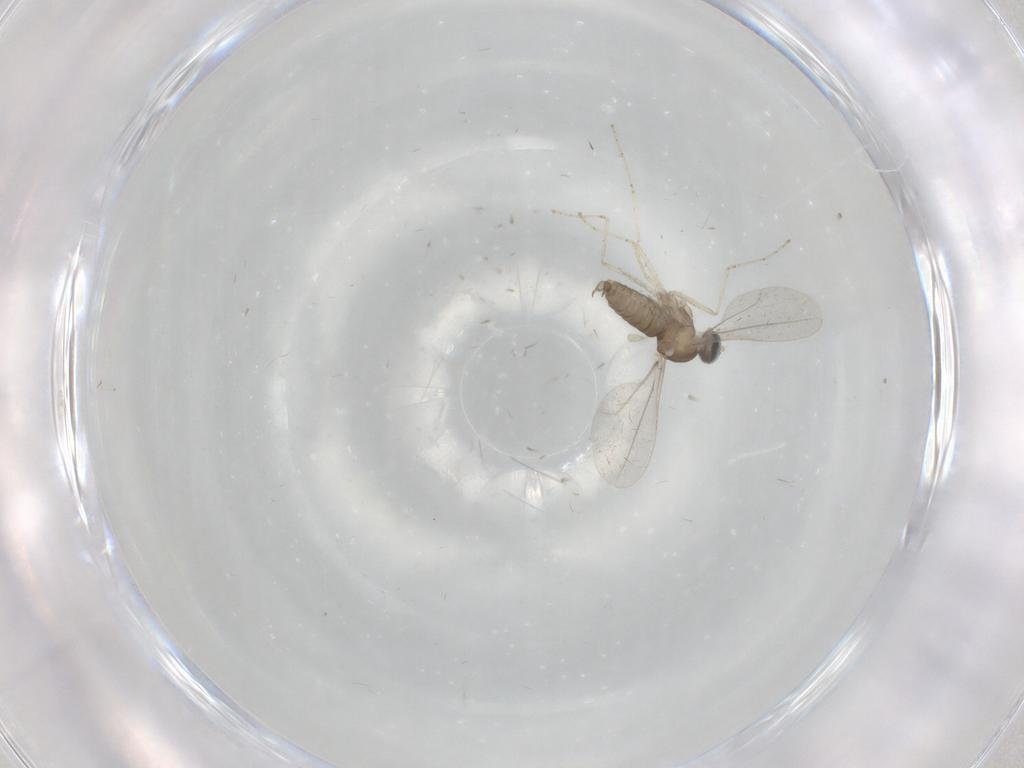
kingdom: Animalia
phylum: Arthropoda
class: Insecta
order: Diptera
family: Cecidomyiidae
